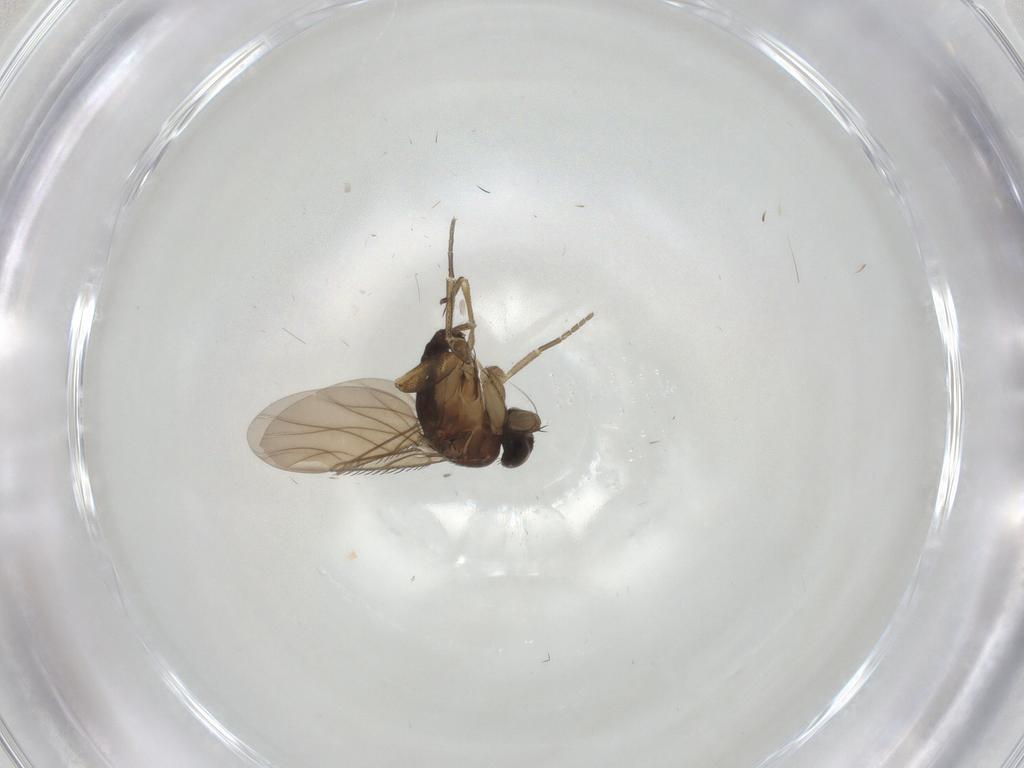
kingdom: Animalia
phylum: Arthropoda
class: Insecta
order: Diptera
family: Phoridae
